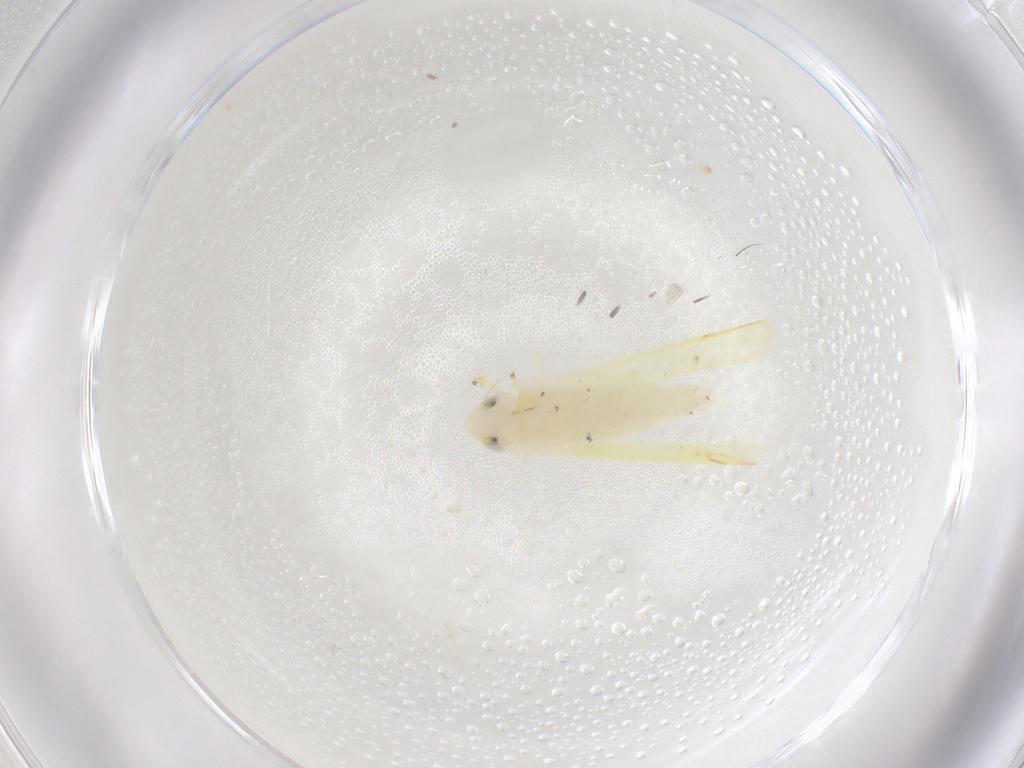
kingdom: Animalia
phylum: Arthropoda
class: Insecta
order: Hemiptera
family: Cicadellidae
